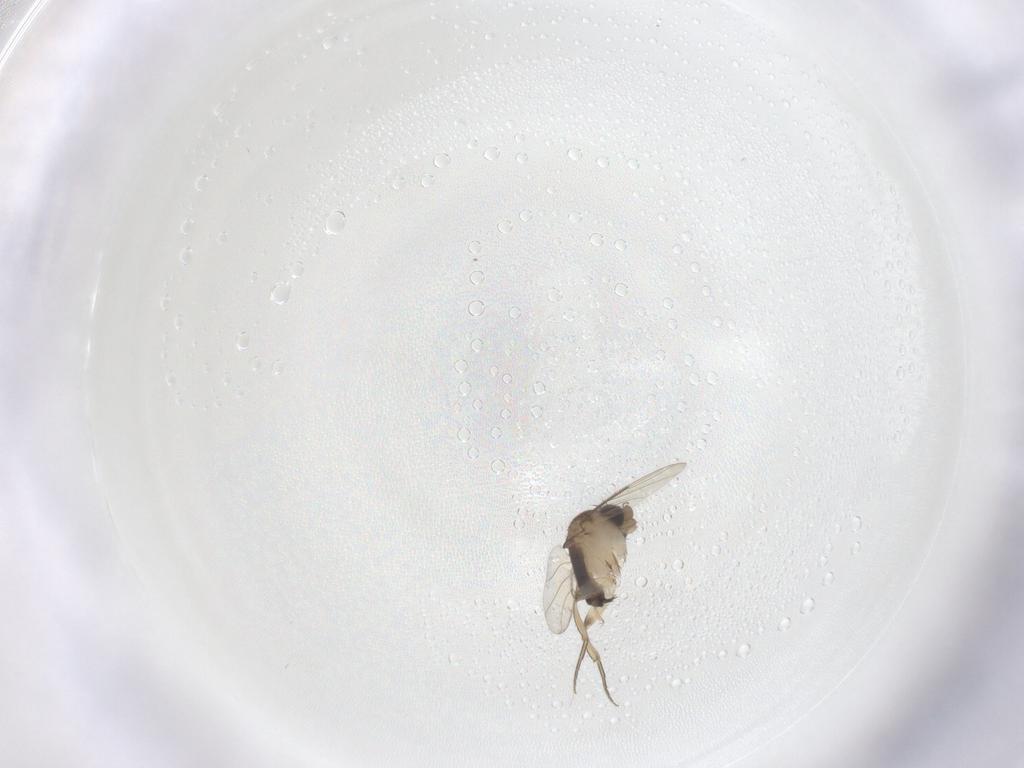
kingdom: Animalia
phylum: Arthropoda
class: Insecta
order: Diptera
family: Phoridae
